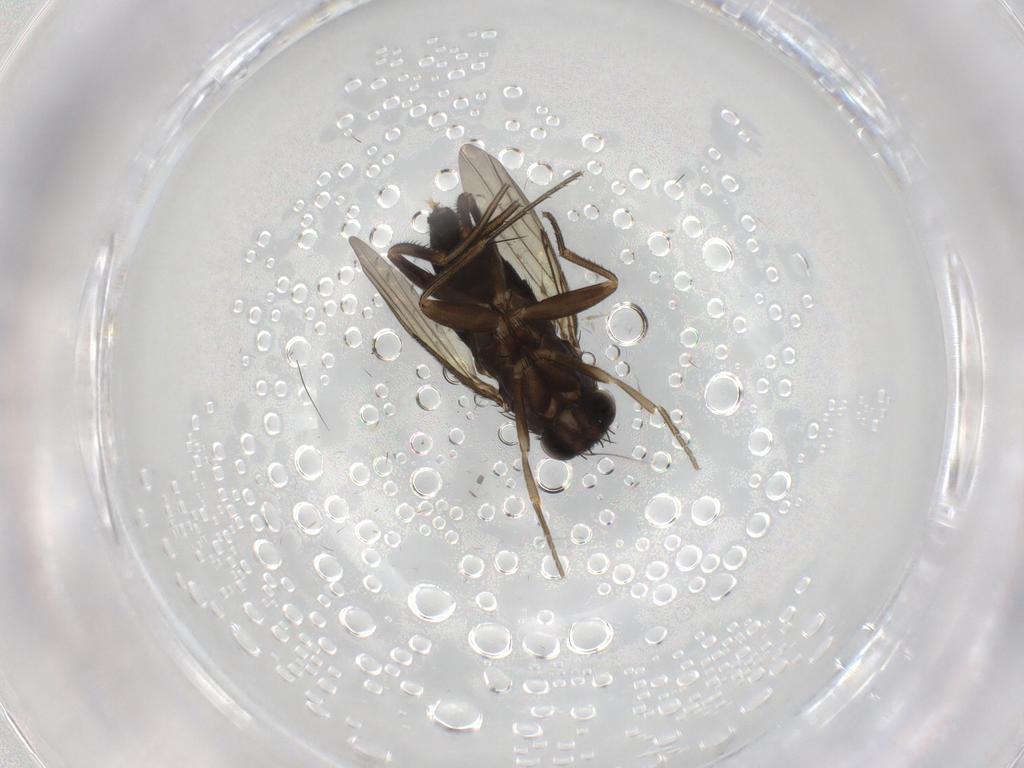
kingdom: Animalia
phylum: Arthropoda
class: Insecta
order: Diptera
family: Phoridae
